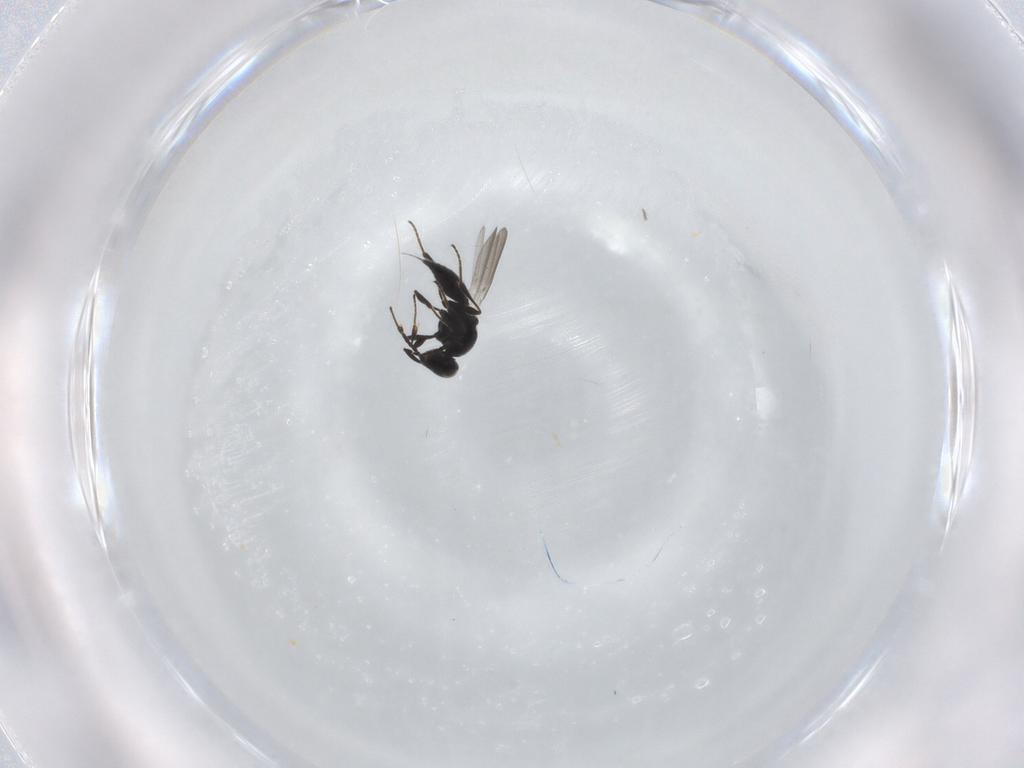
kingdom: Animalia
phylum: Arthropoda
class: Insecta
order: Hymenoptera
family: Platygastridae
